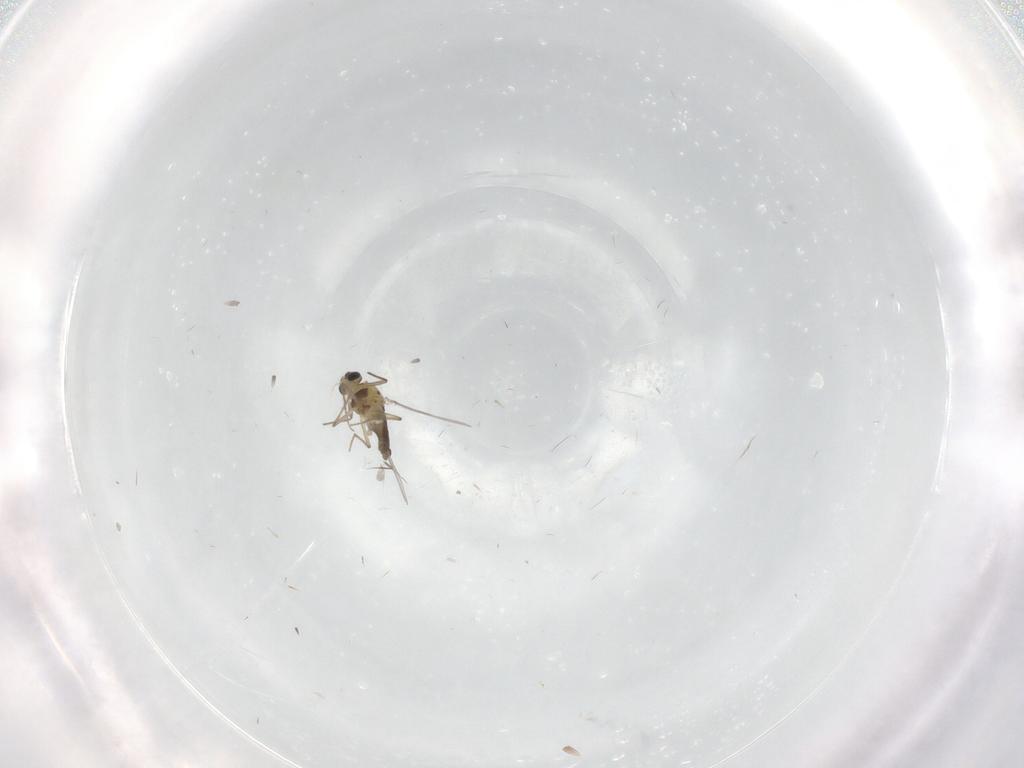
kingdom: Animalia
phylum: Arthropoda
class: Insecta
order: Diptera
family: Chironomidae
